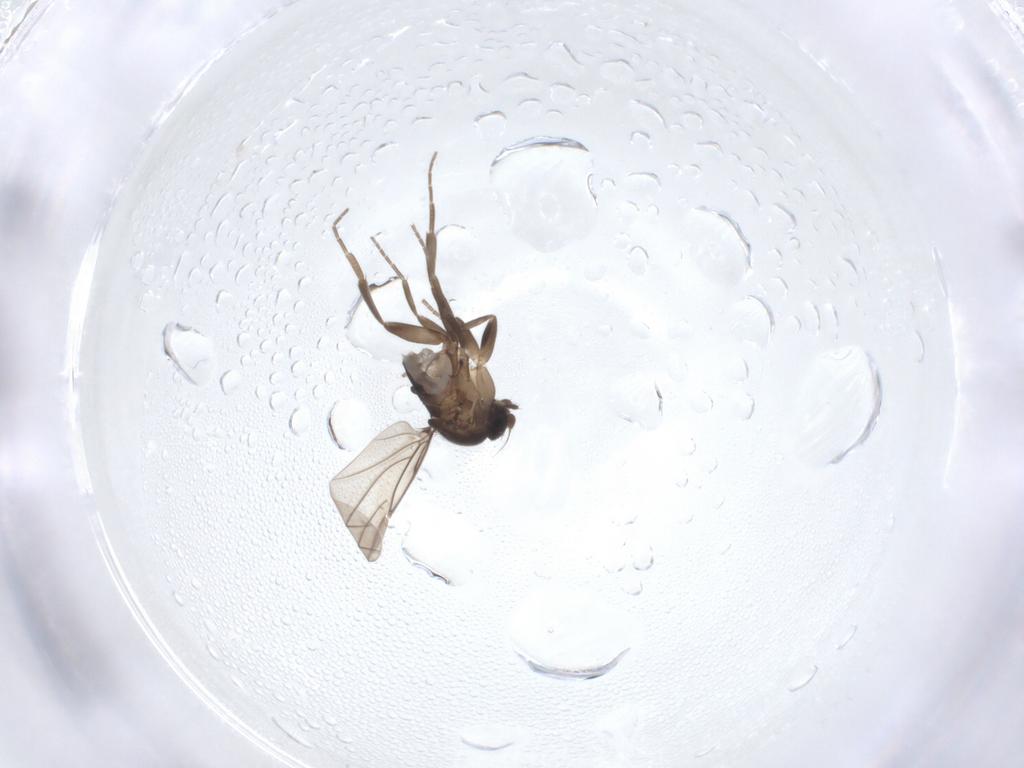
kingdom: Animalia
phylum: Arthropoda
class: Insecta
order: Diptera
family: Phoridae
